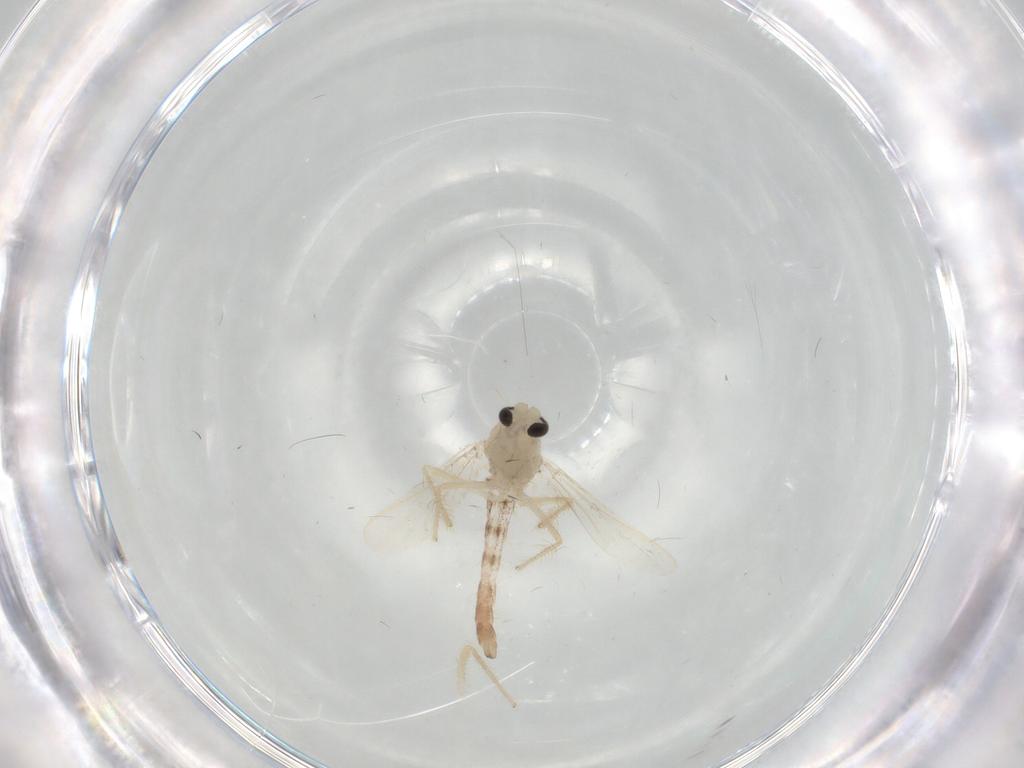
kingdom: Animalia
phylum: Arthropoda
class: Insecta
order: Diptera
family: Chironomidae
